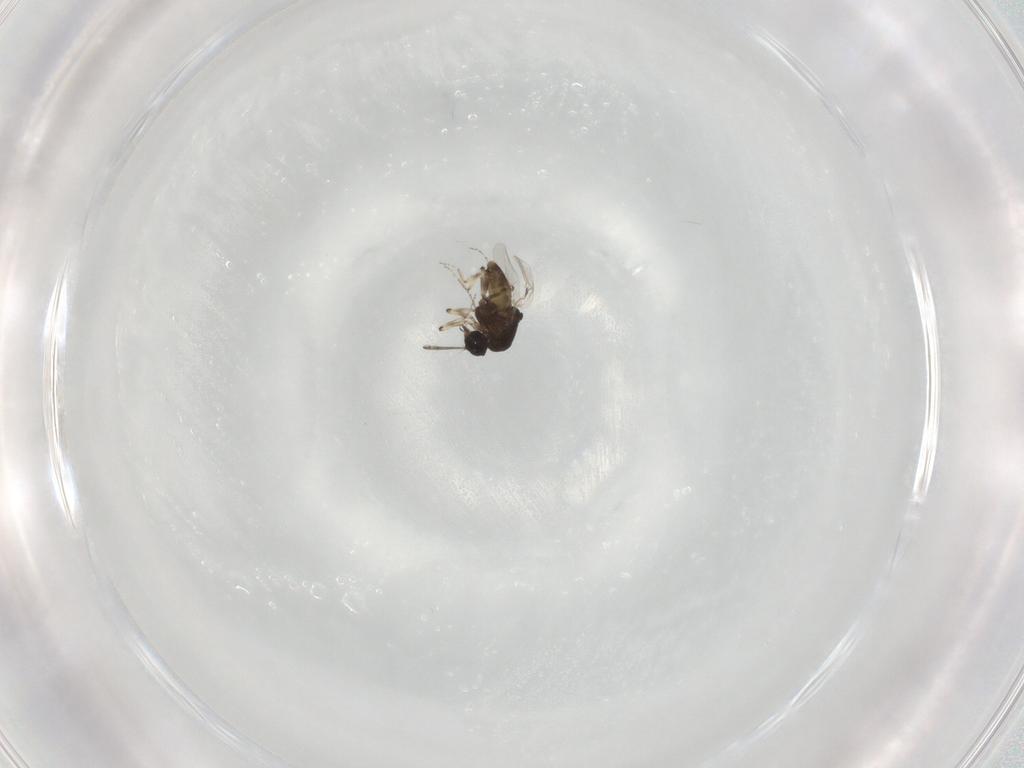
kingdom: Animalia
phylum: Arthropoda
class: Insecta
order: Diptera
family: Ceratopogonidae
